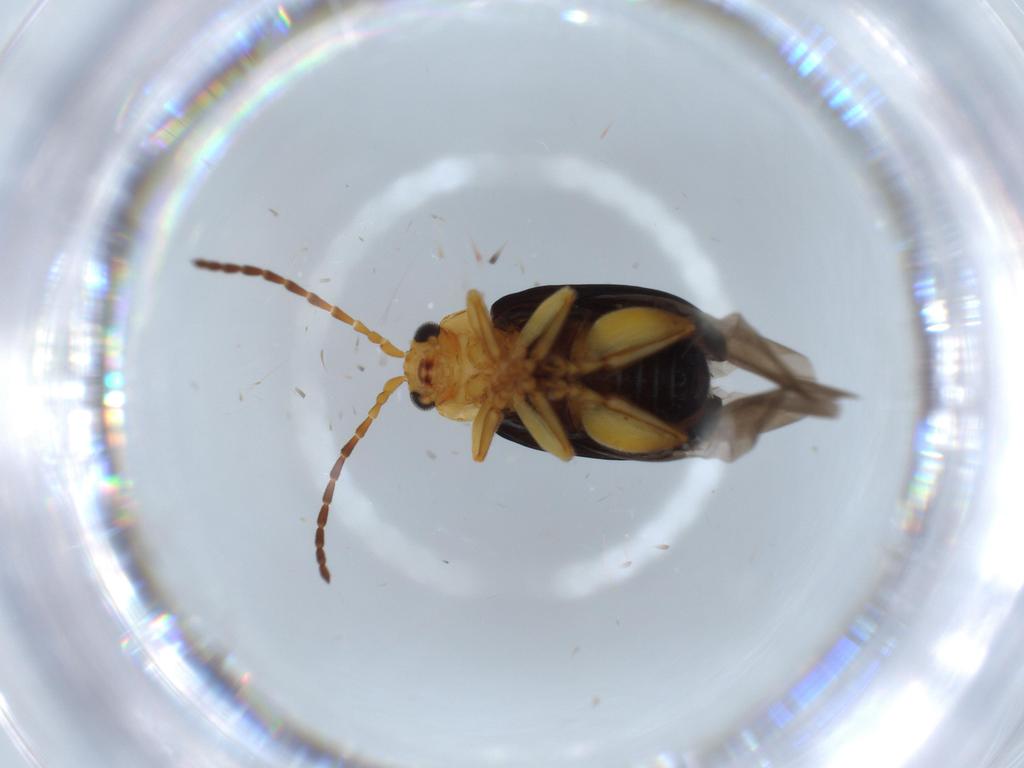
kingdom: Animalia
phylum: Arthropoda
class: Insecta
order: Coleoptera
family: Chrysomelidae
